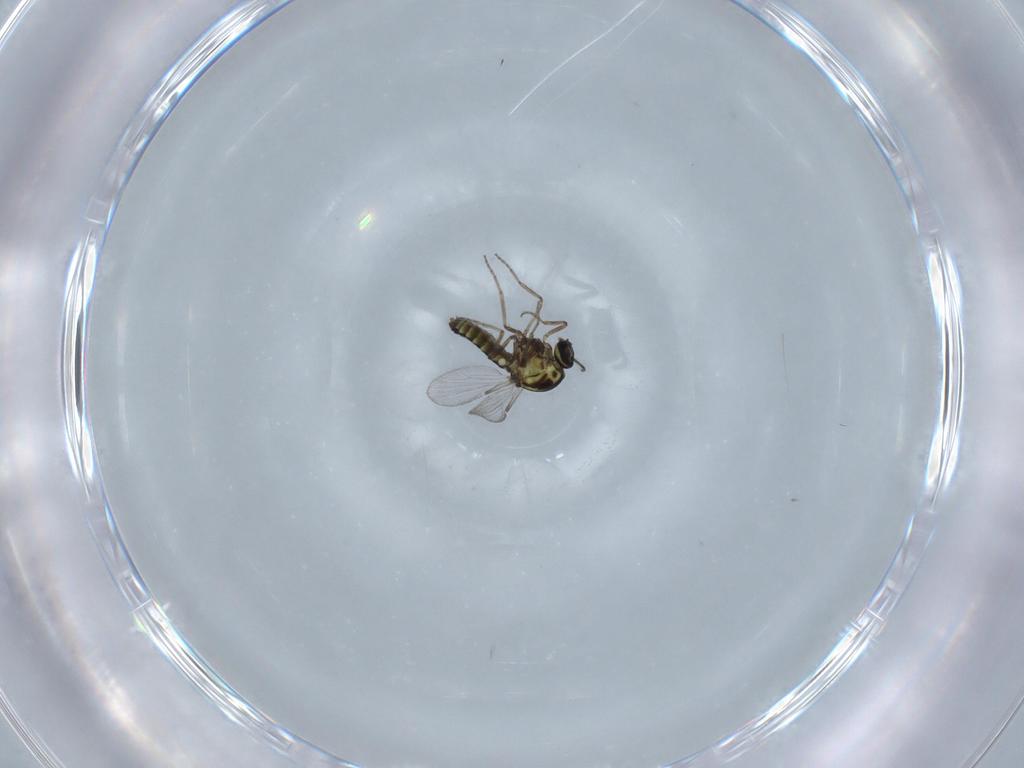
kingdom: Animalia
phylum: Arthropoda
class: Insecta
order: Diptera
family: Ceratopogonidae
